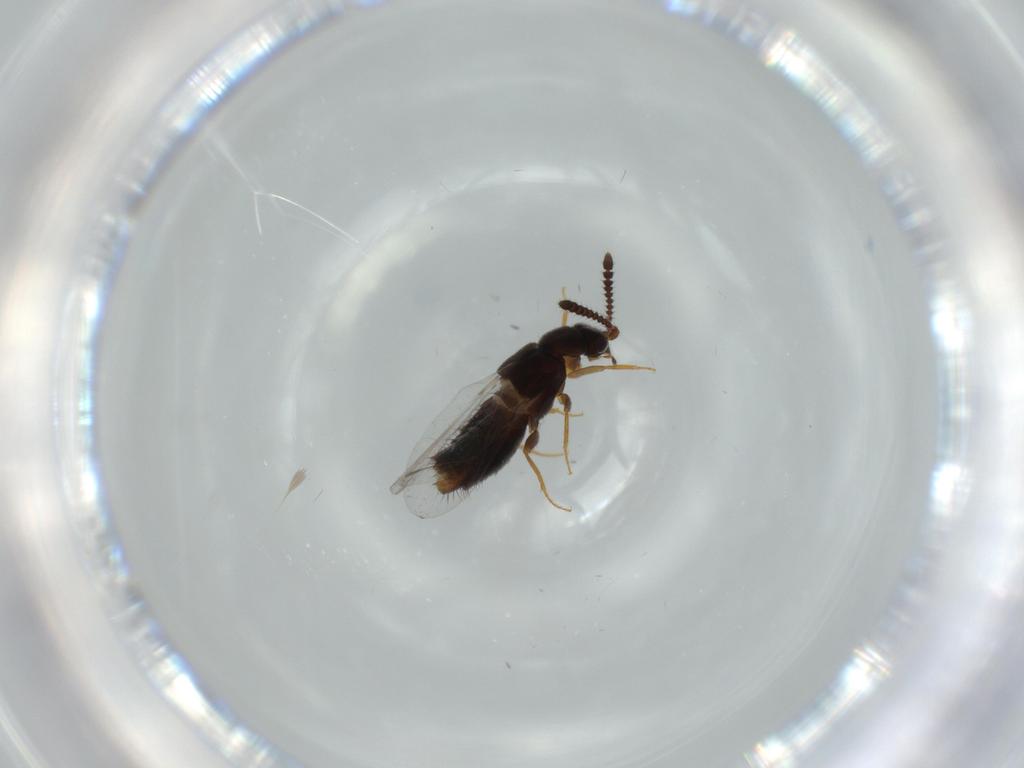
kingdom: Animalia
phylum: Arthropoda
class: Insecta
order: Coleoptera
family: Staphylinidae
